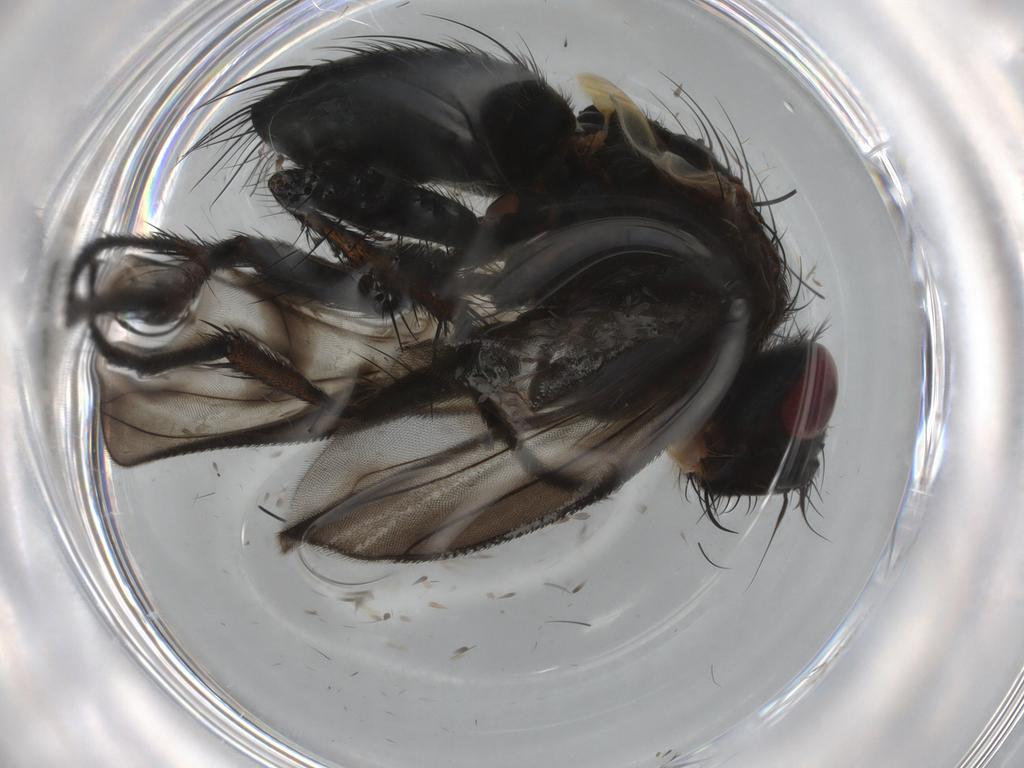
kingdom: Animalia
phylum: Arthropoda
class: Insecta
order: Diptera
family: Tachinidae
